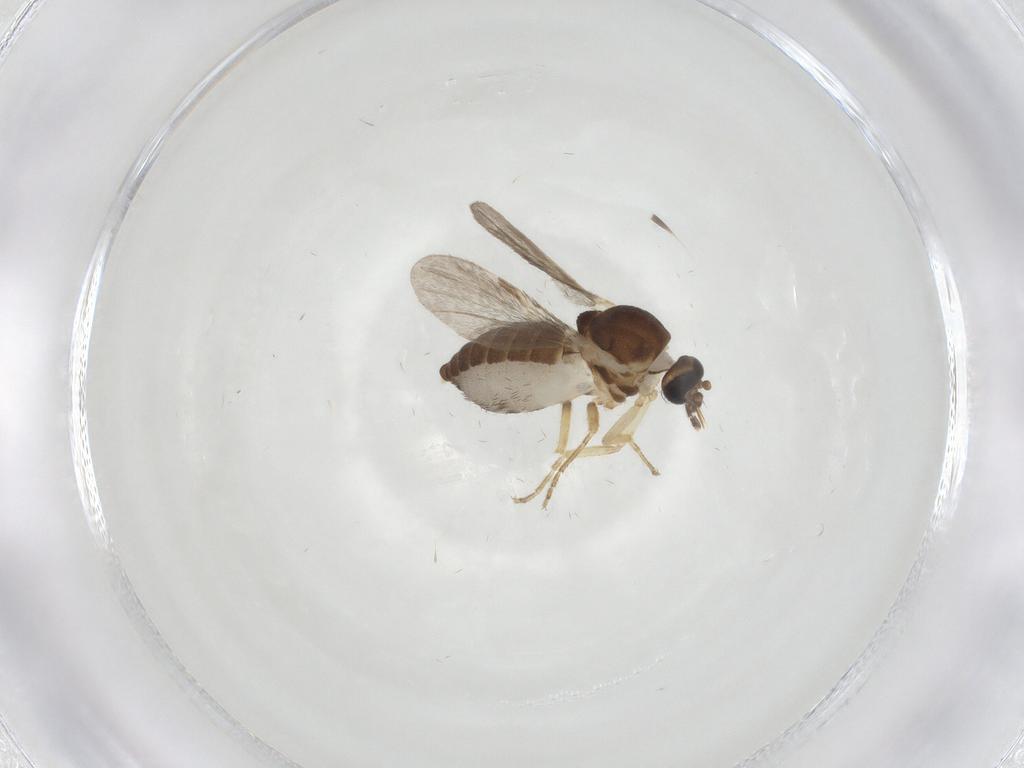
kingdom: Animalia
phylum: Arthropoda
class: Insecta
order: Diptera
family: Ceratopogonidae
